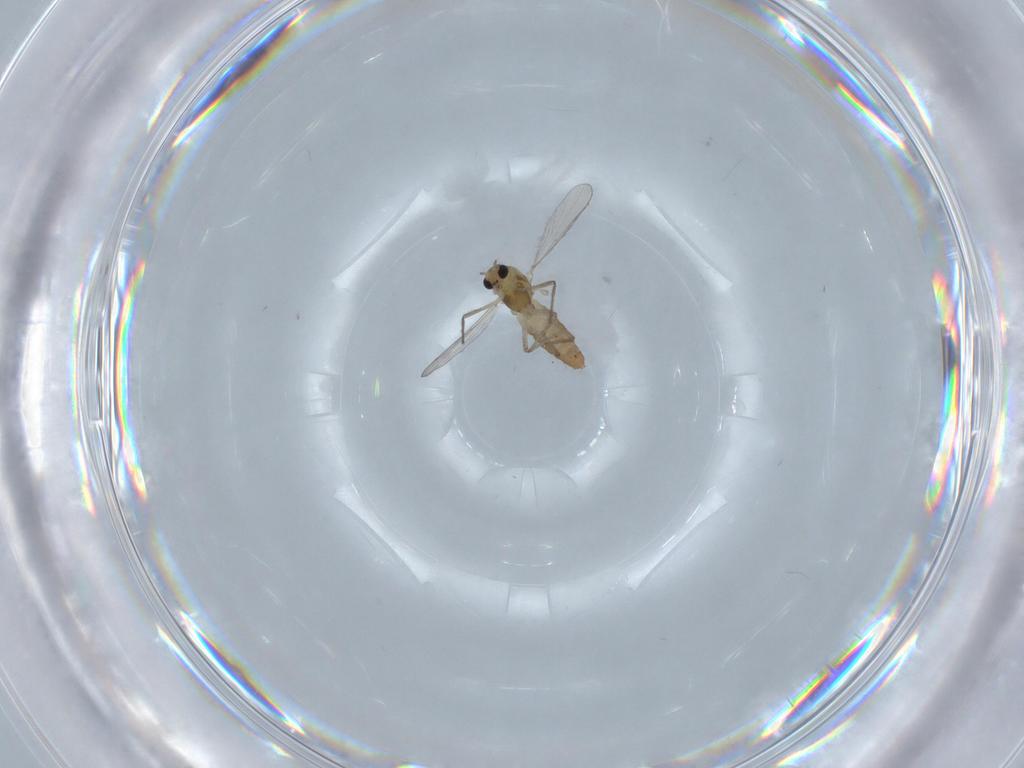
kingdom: Animalia
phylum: Arthropoda
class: Insecta
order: Diptera
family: Chironomidae
